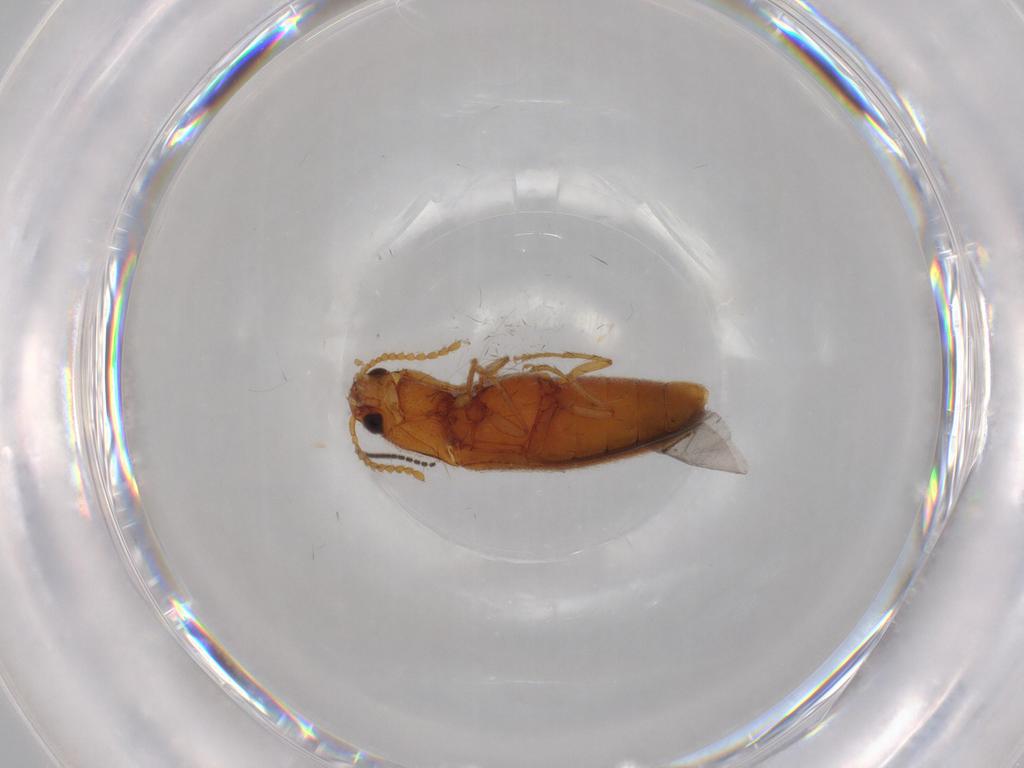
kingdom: Animalia
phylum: Arthropoda
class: Insecta
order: Coleoptera
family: Elateridae
